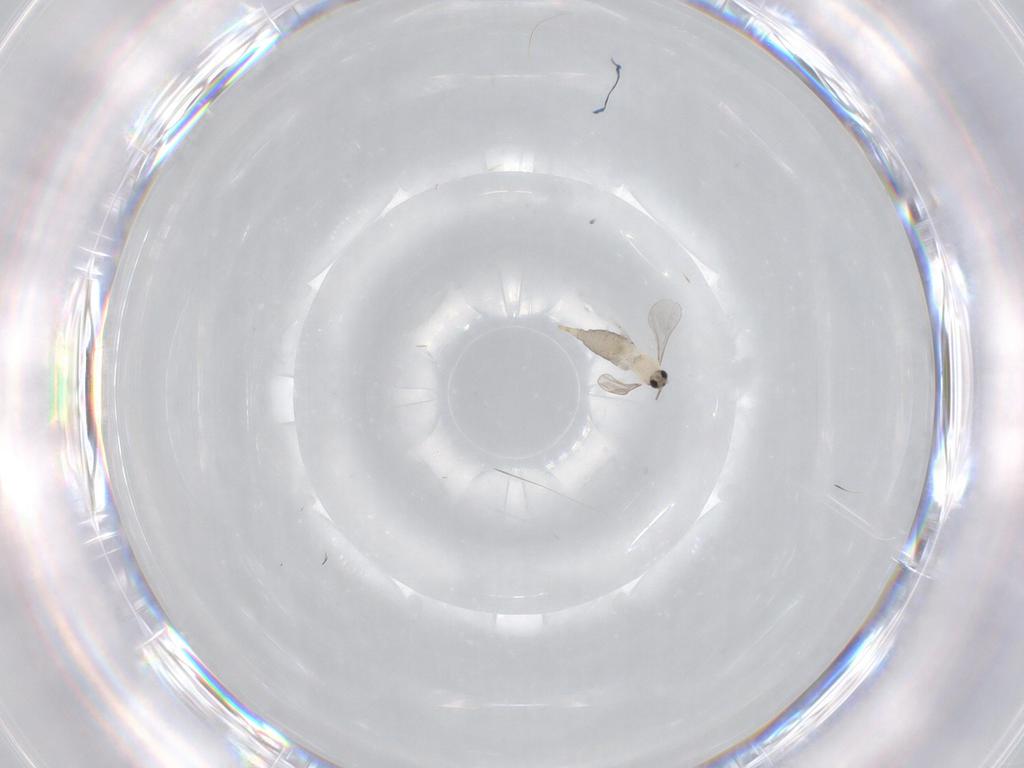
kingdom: Animalia
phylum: Arthropoda
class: Insecta
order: Diptera
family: Cecidomyiidae
